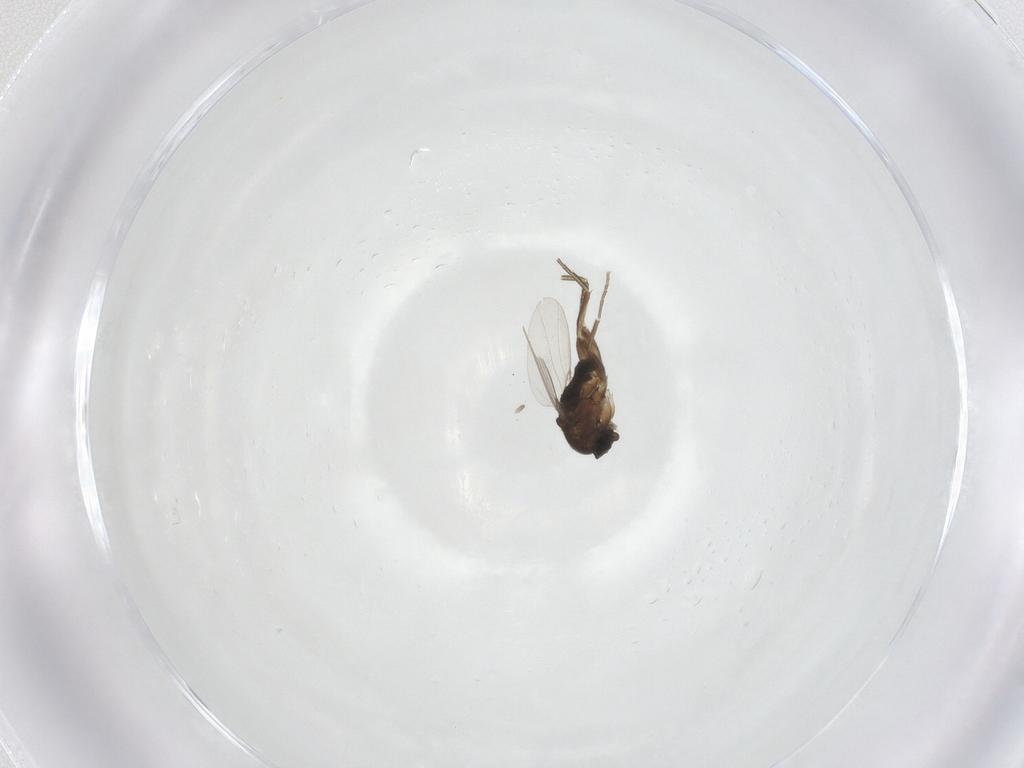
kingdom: Animalia
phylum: Arthropoda
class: Insecta
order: Diptera
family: Phoridae
